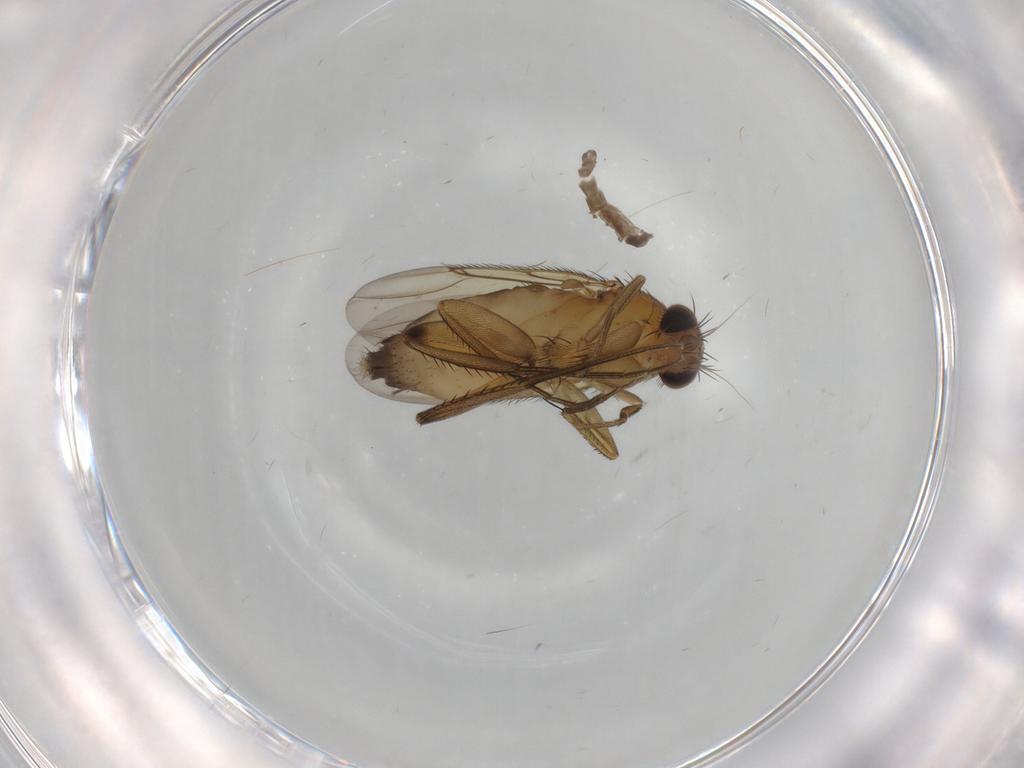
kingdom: Animalia
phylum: Arthropoda
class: Insecta
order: Diptera
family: Phoridae
